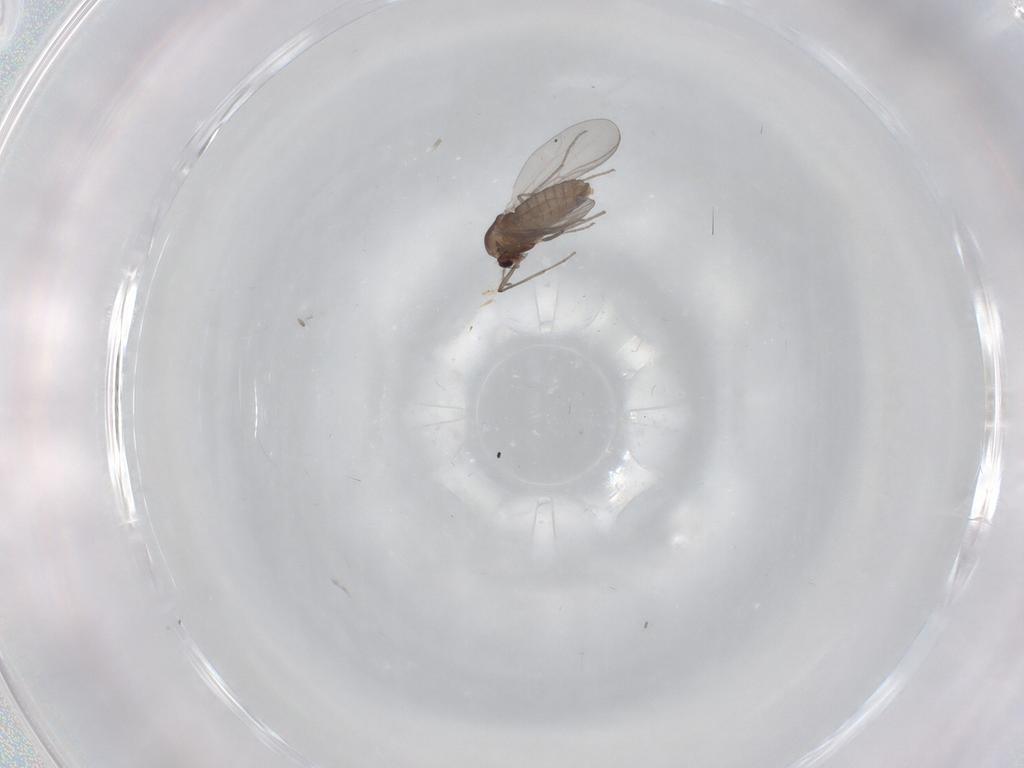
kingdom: Animalia
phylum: Arthropoda
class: Insecta
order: Diptera
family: Chironomidae
